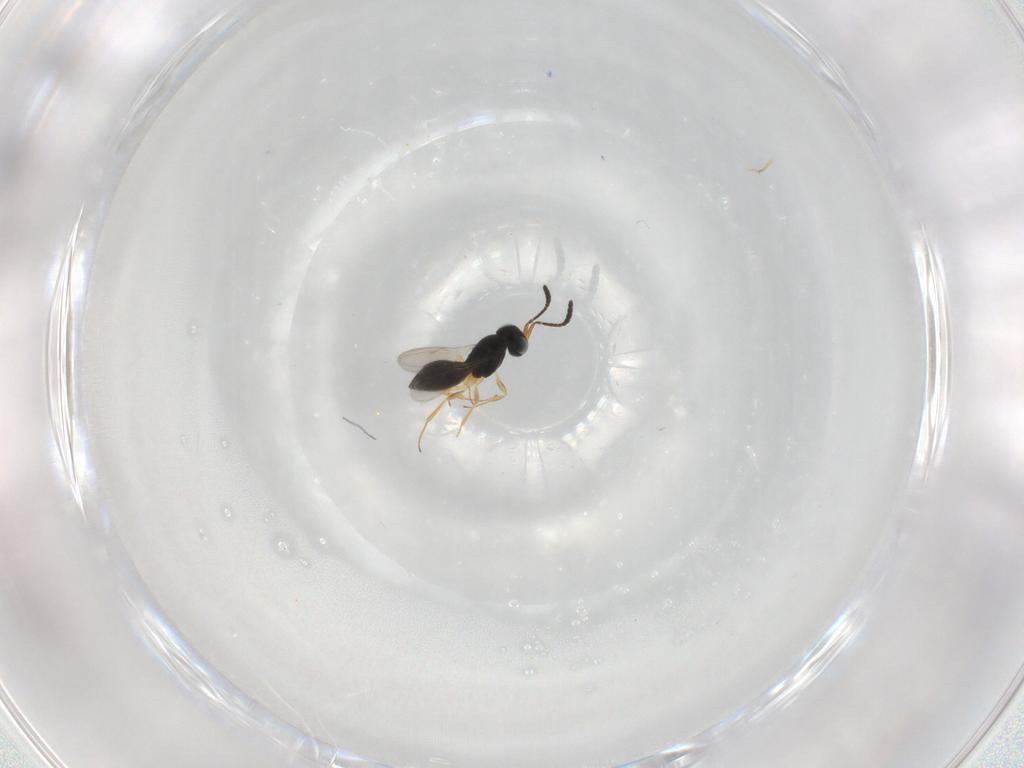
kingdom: Animalia
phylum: Arthropoda
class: Insecta
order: Hymenoptera
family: Scelionidae
